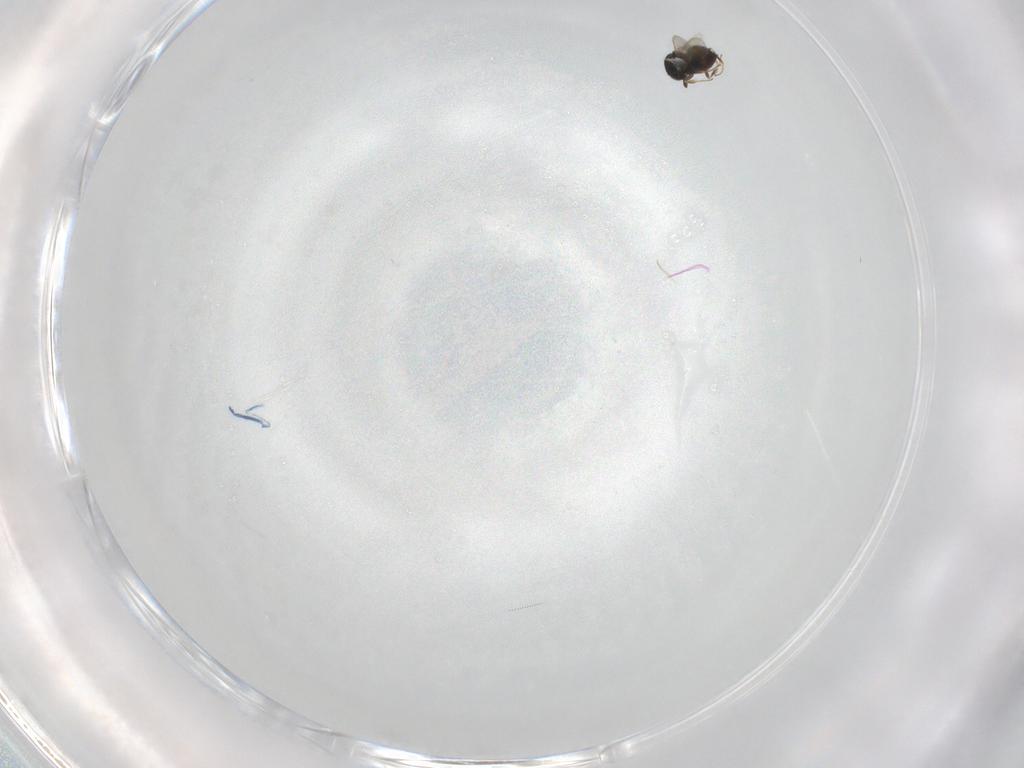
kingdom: Animalia
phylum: Arthropoda
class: Insecta
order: Hymenoptera
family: Scelionidae
